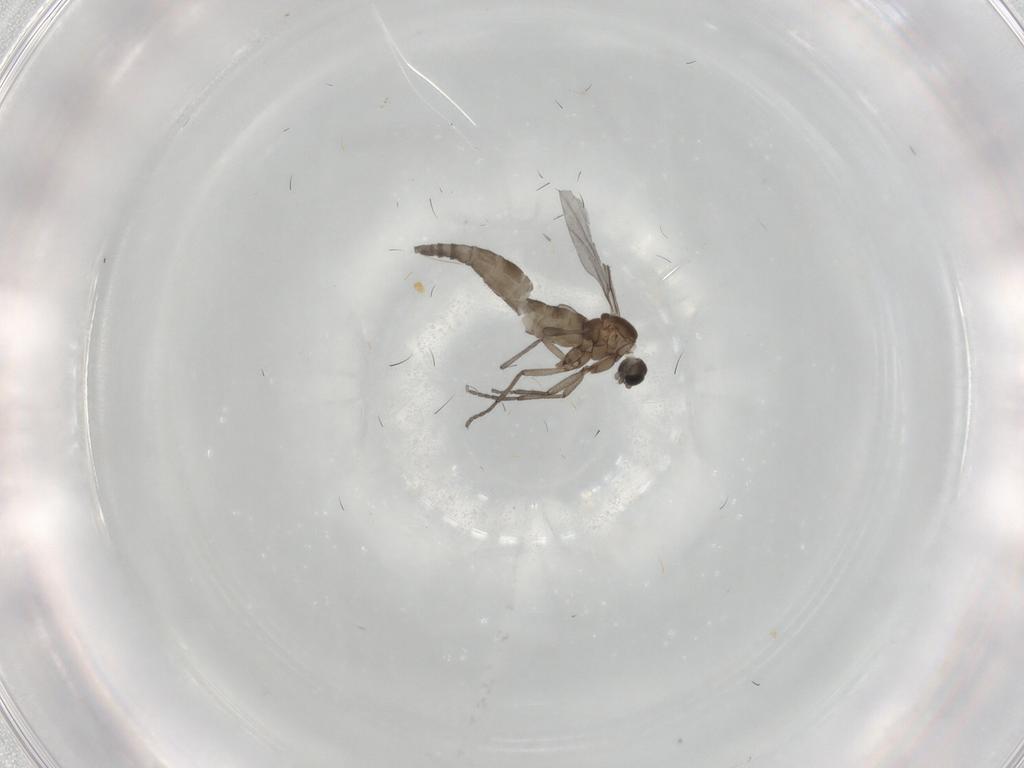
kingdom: Animalia
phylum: Arthropoda
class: Insecta
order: Diptera
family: Sciaridae
